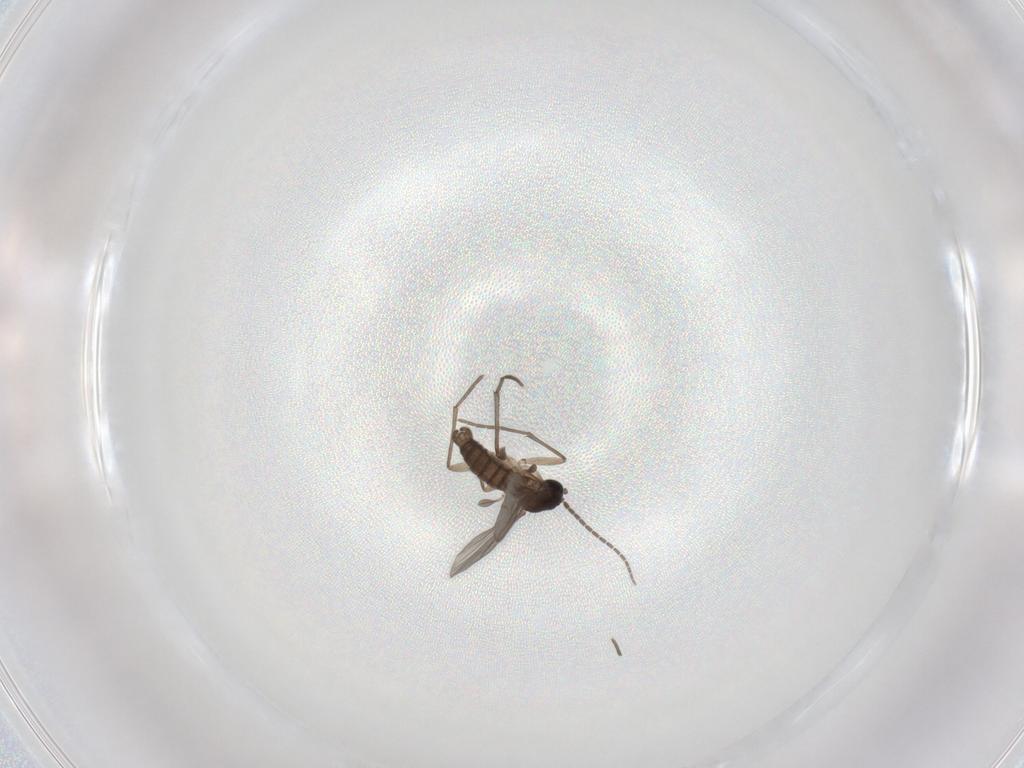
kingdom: Animalia
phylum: Arthropoda
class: Insecta
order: Diptera
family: Sciaridae
